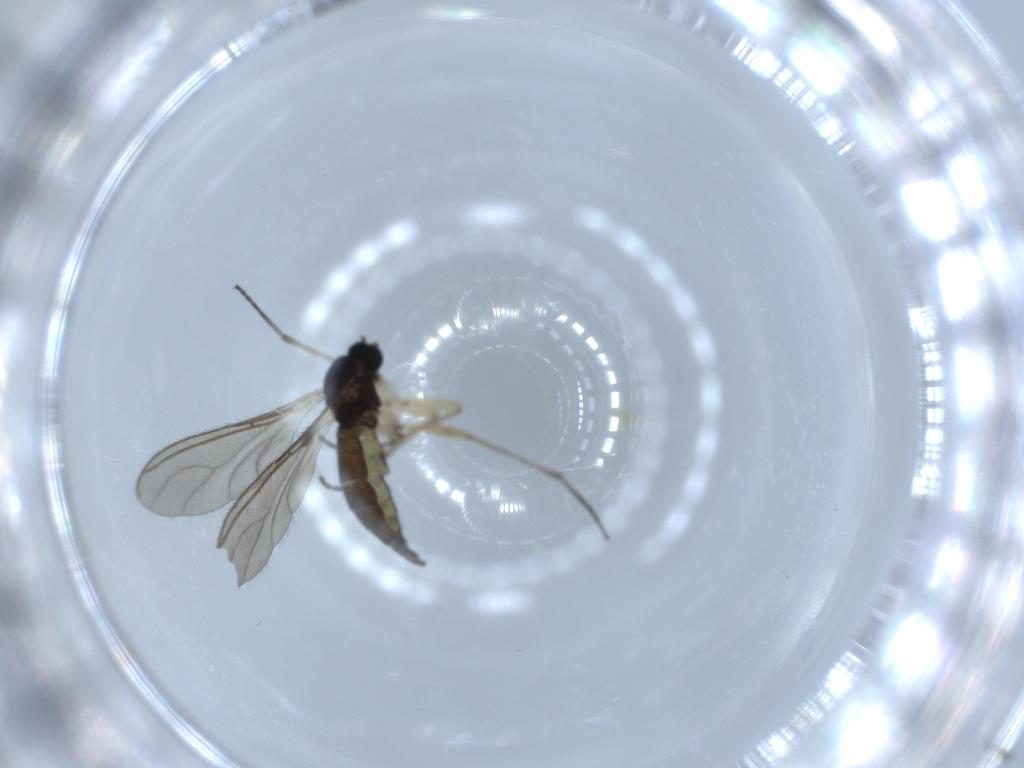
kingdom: Animalia
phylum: Arthropoda
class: Insecta
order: Diptera
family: Sciaridae
